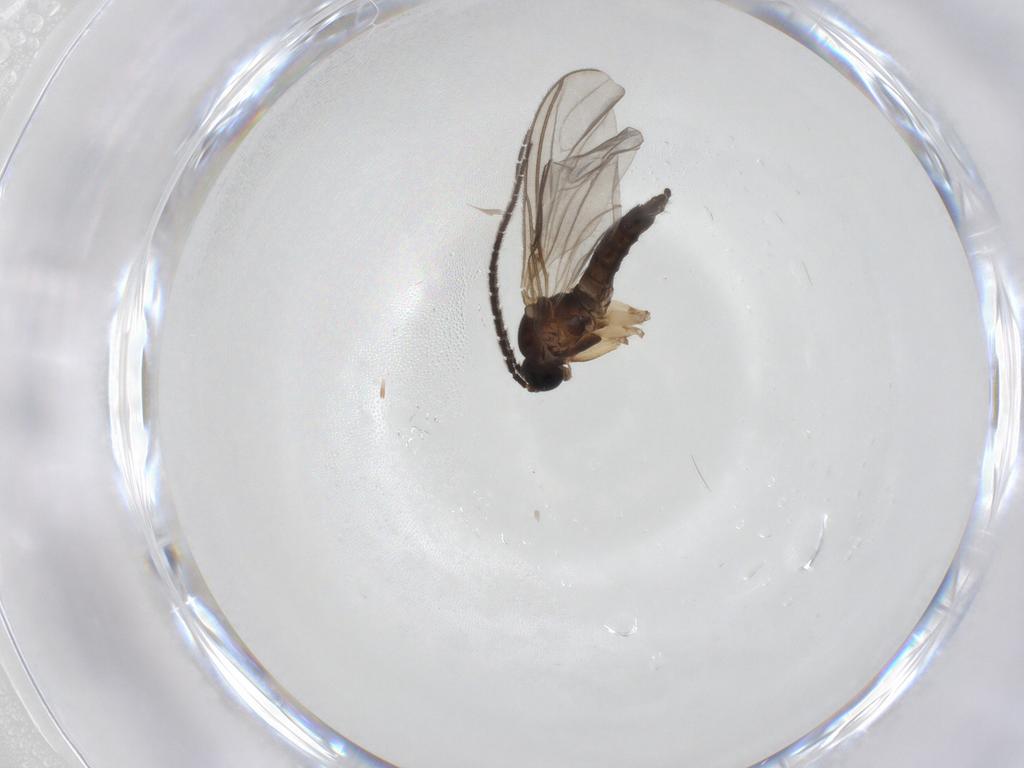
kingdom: Animalia
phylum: Arthropoda
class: Insecta
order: Diptera
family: Sciaridae
